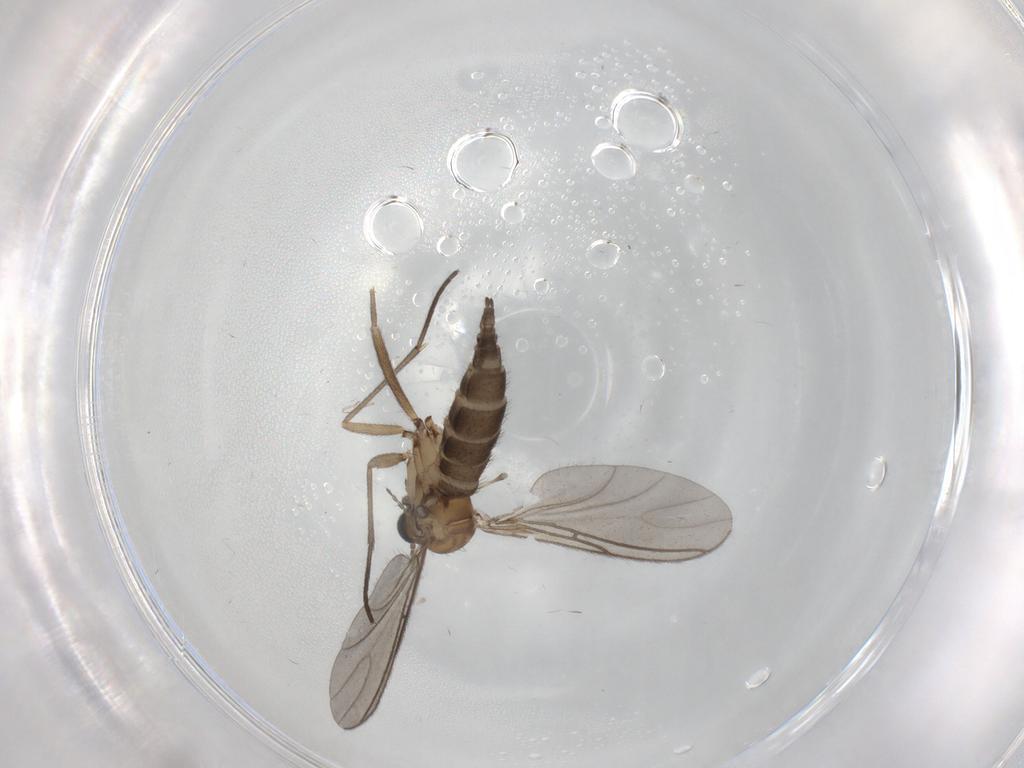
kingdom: Animalia
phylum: Arthropoda
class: Insecta
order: Diptera
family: Sciaridae
